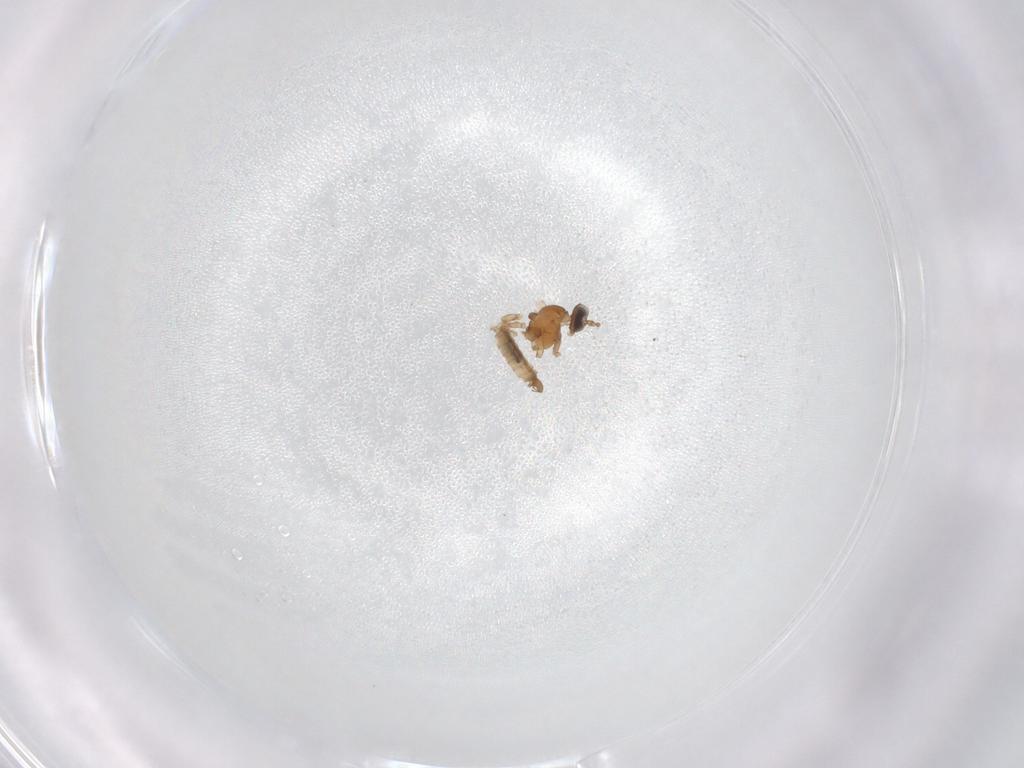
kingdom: Animalia
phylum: Arthropoda
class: Insecta
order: Diptera
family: Cecidomyiidae
